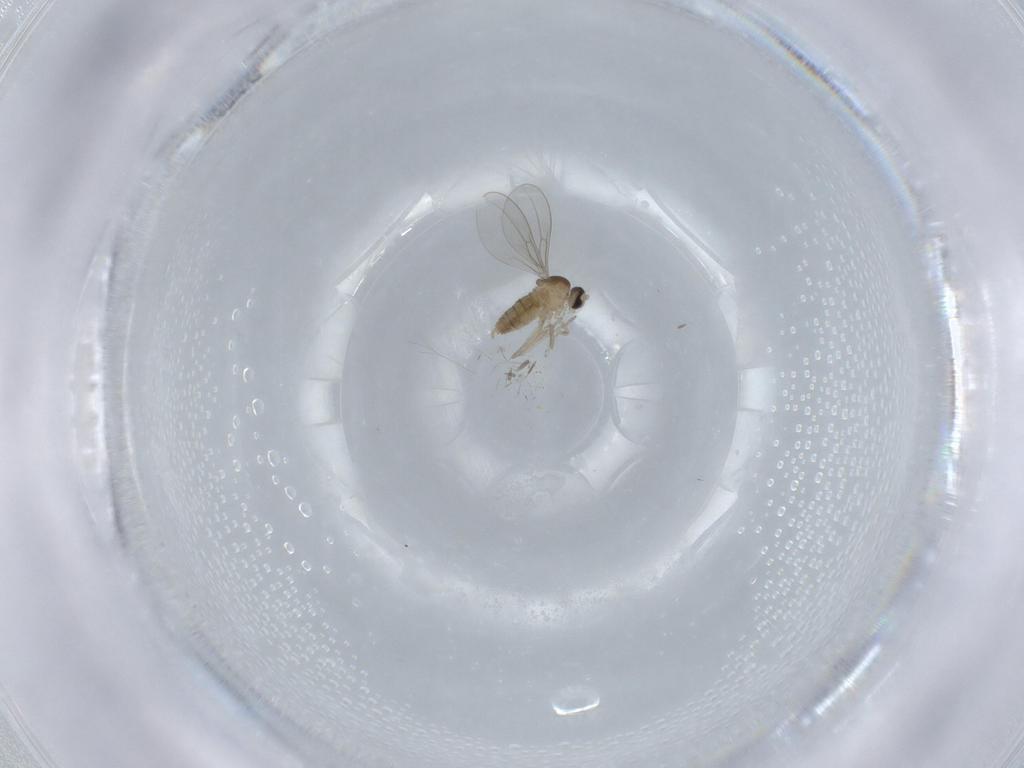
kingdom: Animalia
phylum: Arthropoda
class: Insecta
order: Diptera
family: Cecidomyiidae
